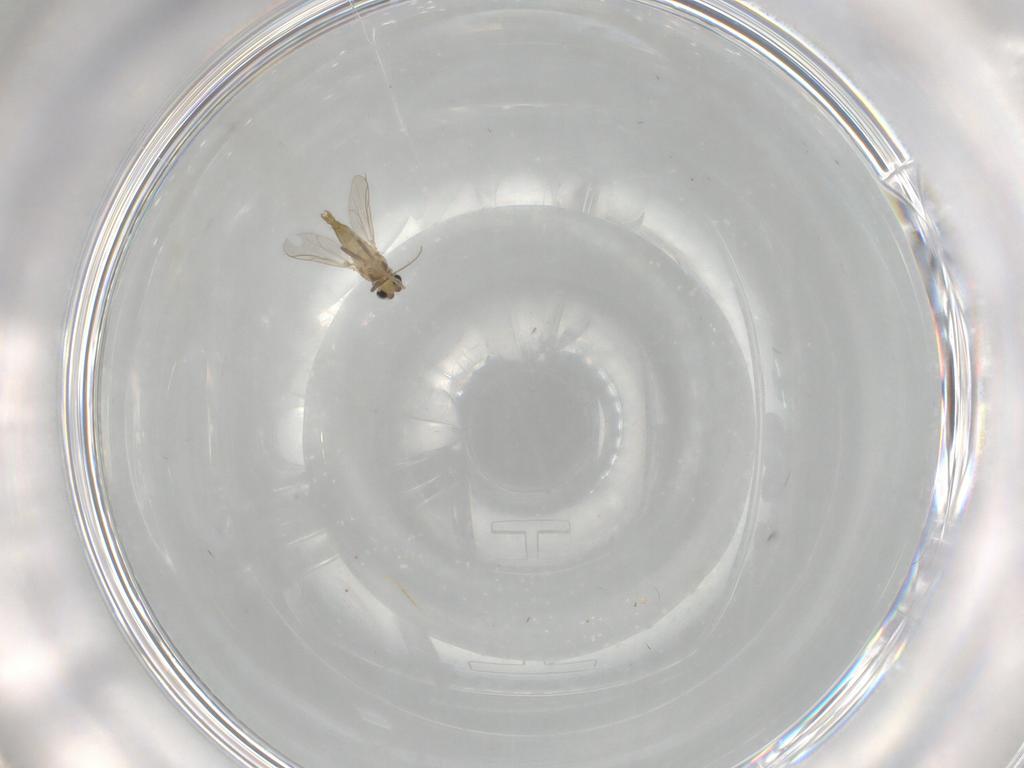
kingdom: Animalia
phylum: Arthropoda
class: Insecta
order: Diptera
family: Chironomidae
